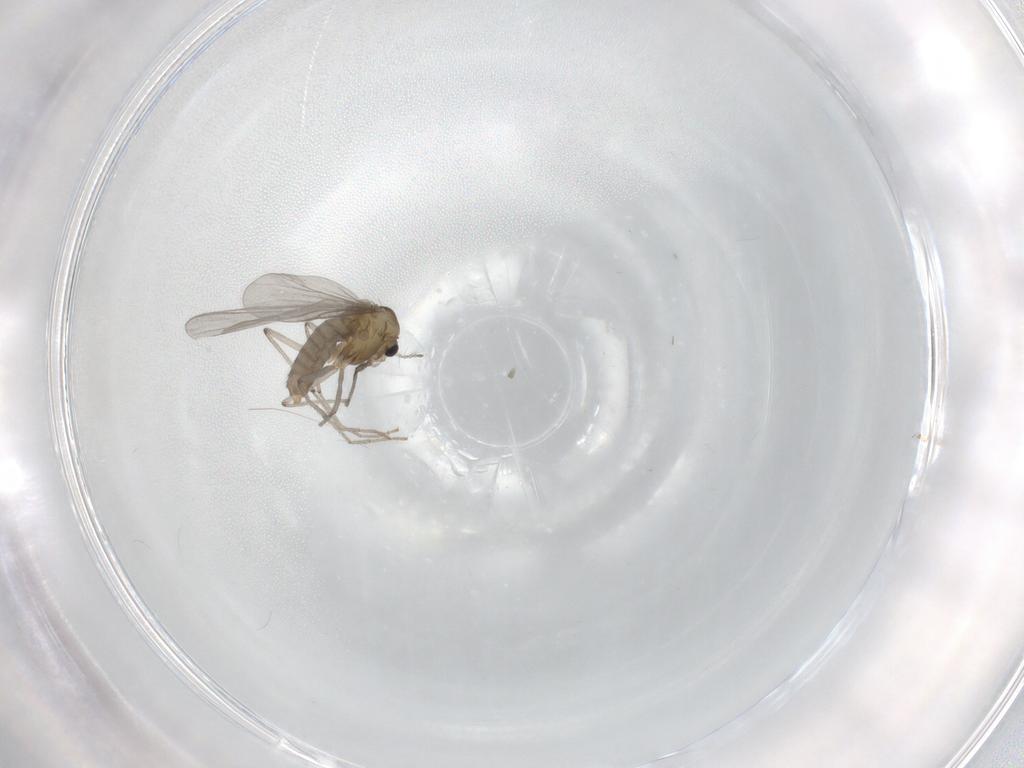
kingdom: Animalia
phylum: Arthropoda
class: Insecta
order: Diptera
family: Chironomidae
